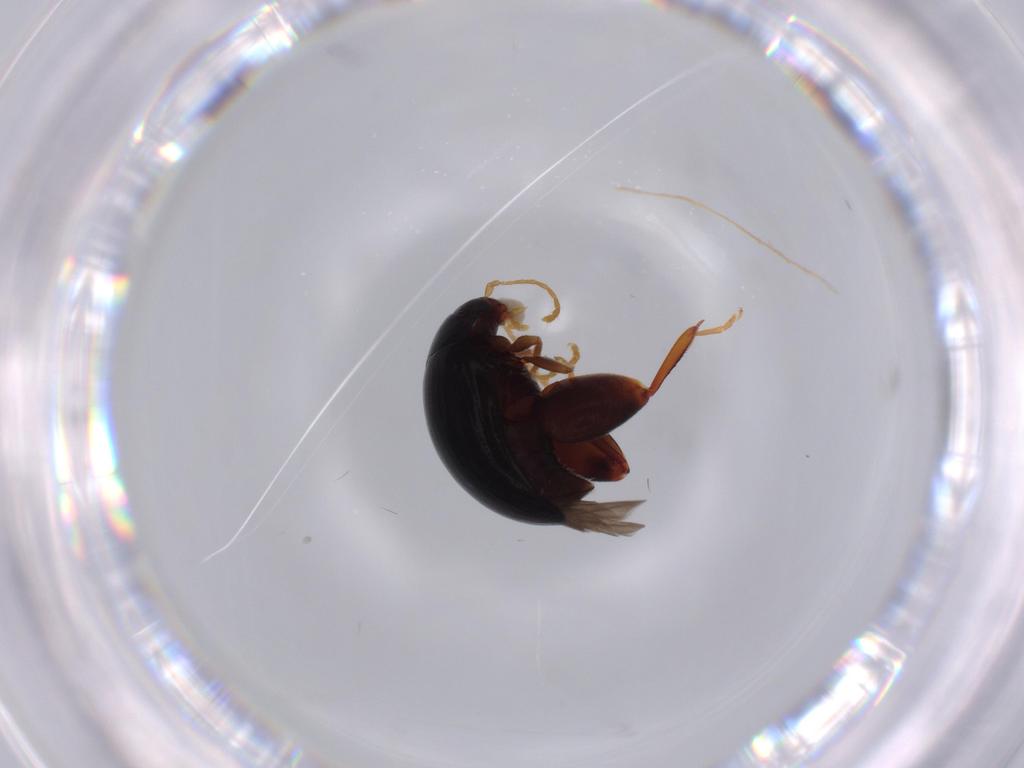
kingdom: Animalia
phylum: Arthropoda
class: Insecta
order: Coleoptera
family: Chrysomelidae
